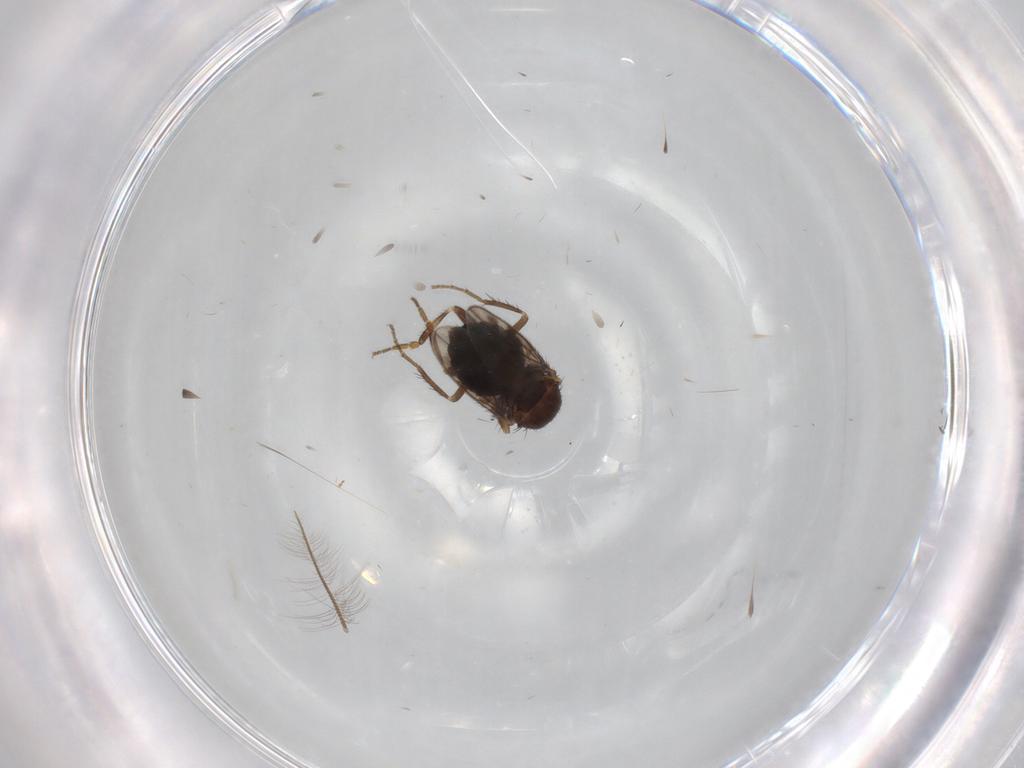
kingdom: Animalia
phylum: Arthropoda
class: Insecta
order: Diptera
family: Sphaeroceridae
